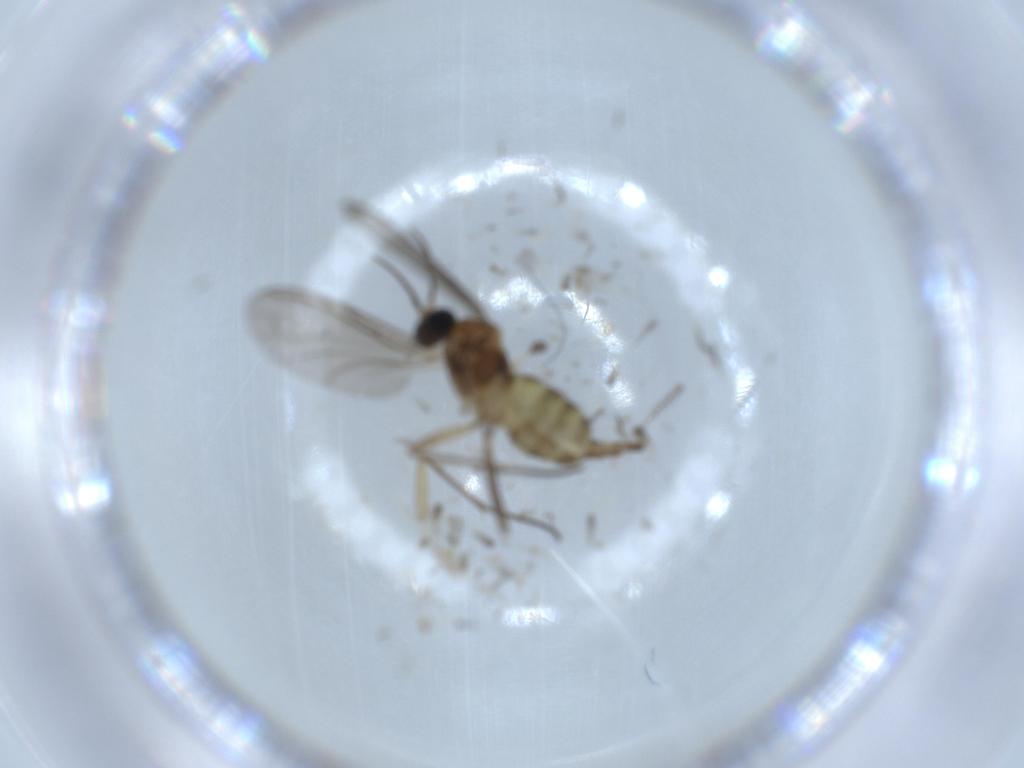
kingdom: Animalia
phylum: Arthropoda
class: Insecta
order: Diptera
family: Sciaridae
